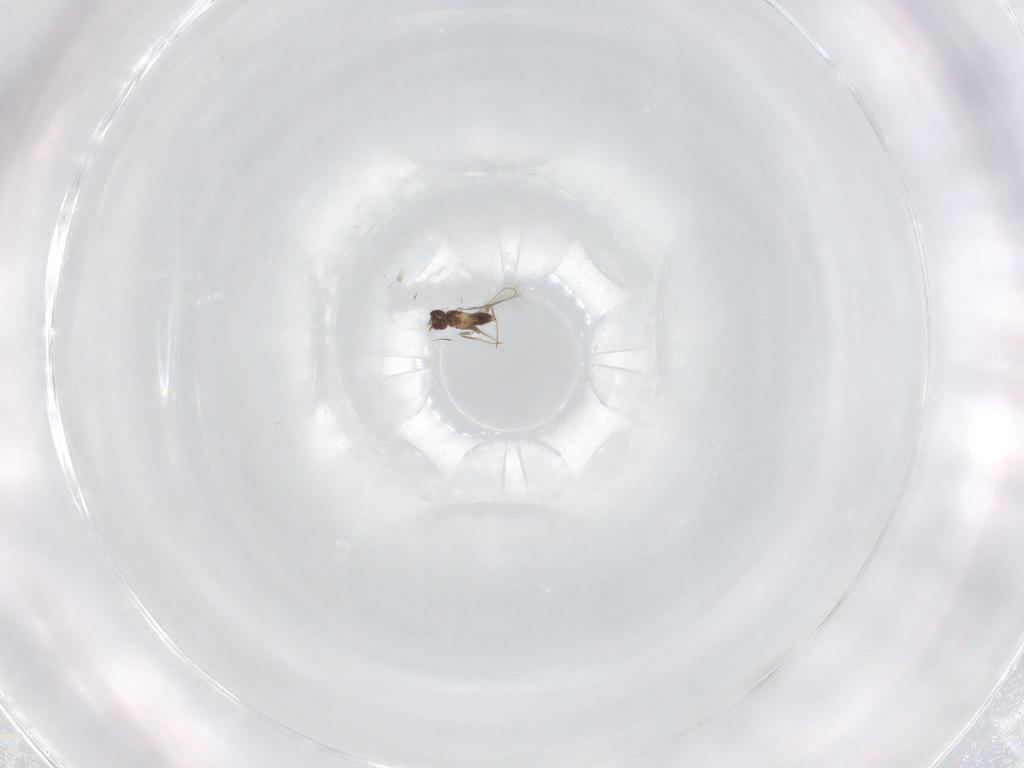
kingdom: Animalia
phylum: Arthropoda
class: Insecta
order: Hymenoptera
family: Mymaridae
